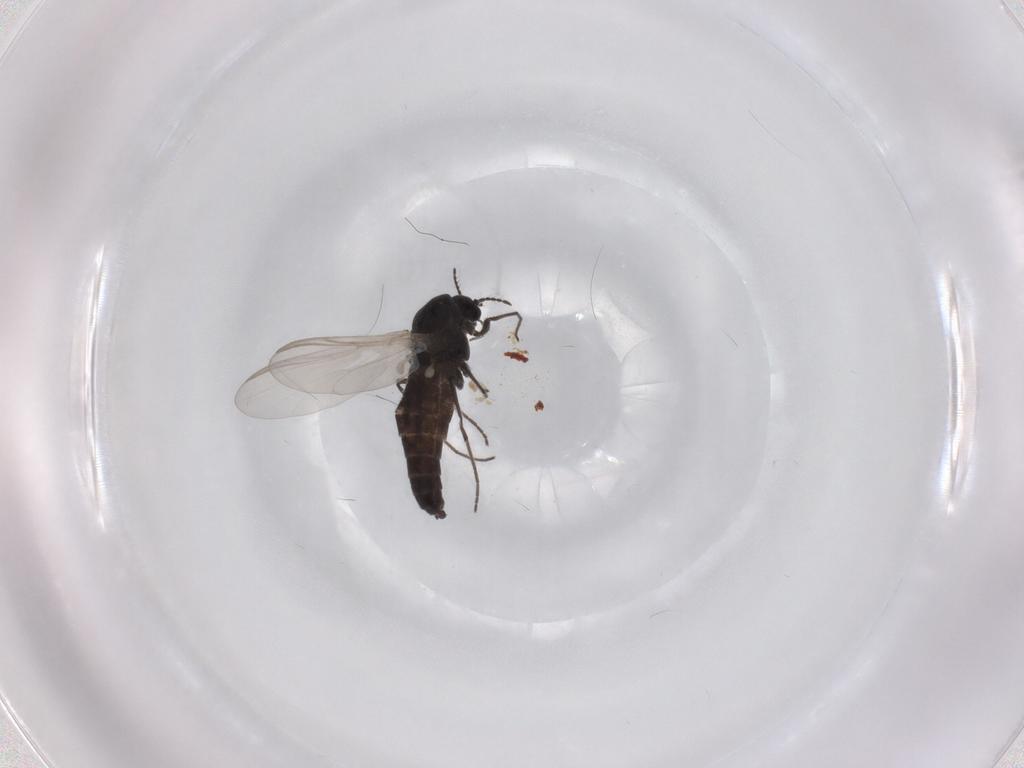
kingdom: Animalia
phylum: Arthropoda
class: Insecta
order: Diptera
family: Chironomidae
